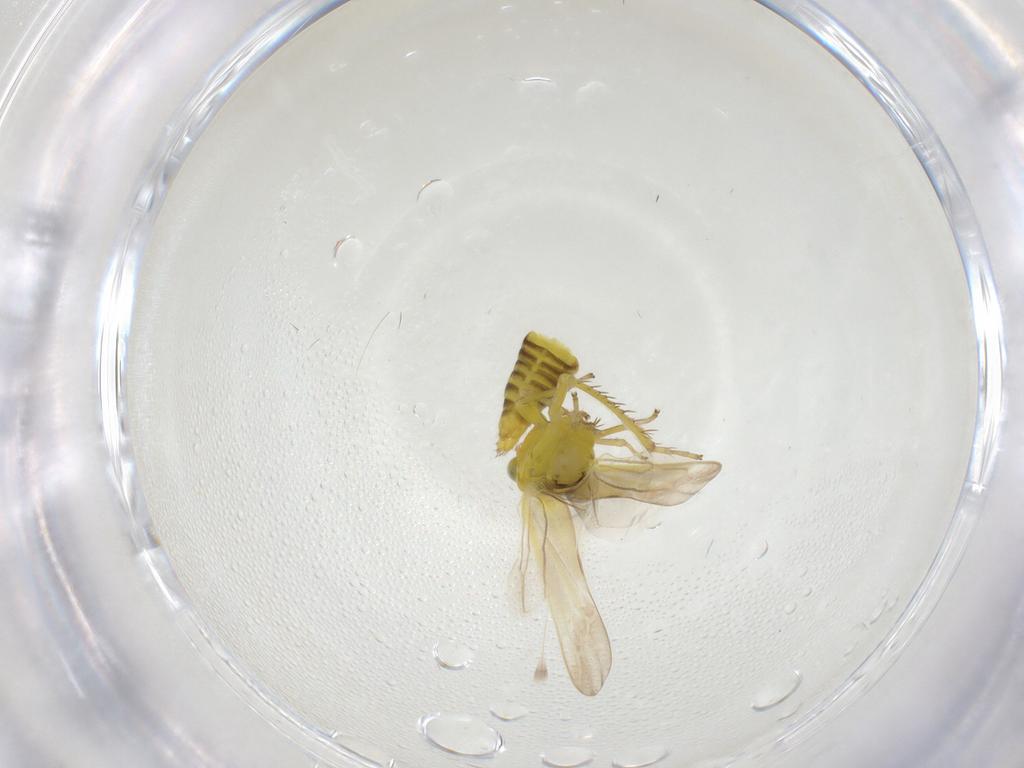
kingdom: Animalia
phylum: Arthropoda
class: Insecta
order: Hemiptera
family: Cicadellidae
